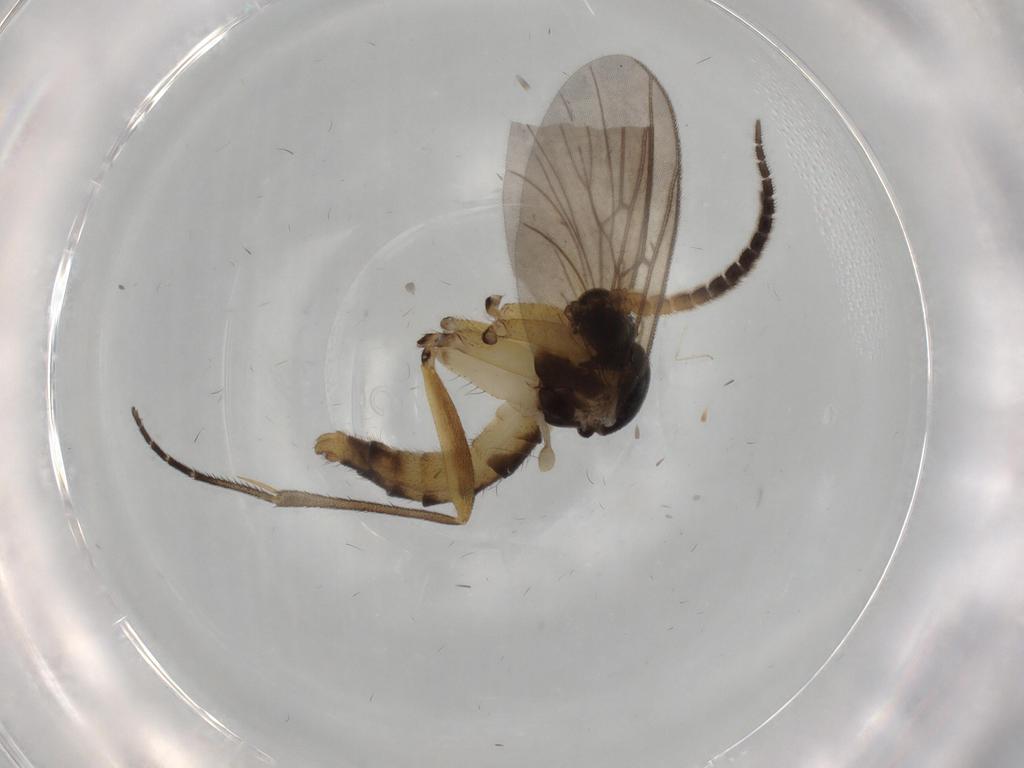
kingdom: Animalia
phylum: Arthropoda
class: Insecta
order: Diptera
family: Phoridae
